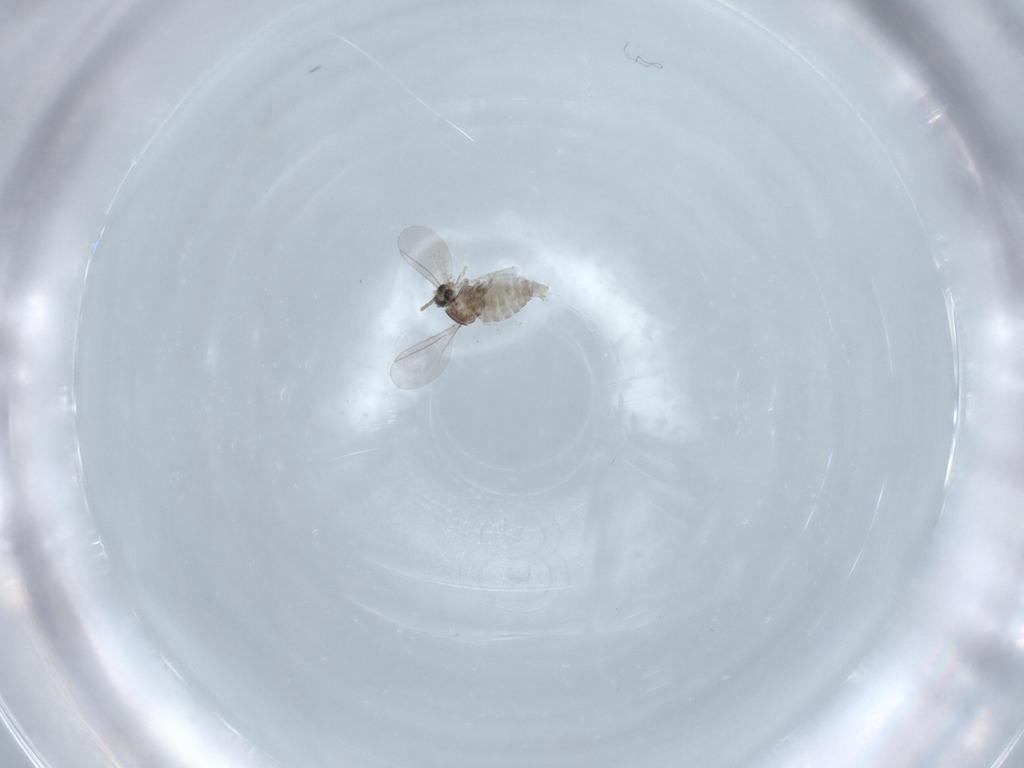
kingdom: Animalia
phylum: Arthropoda
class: Insecta
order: Diptera
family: Cecidomyiidae
